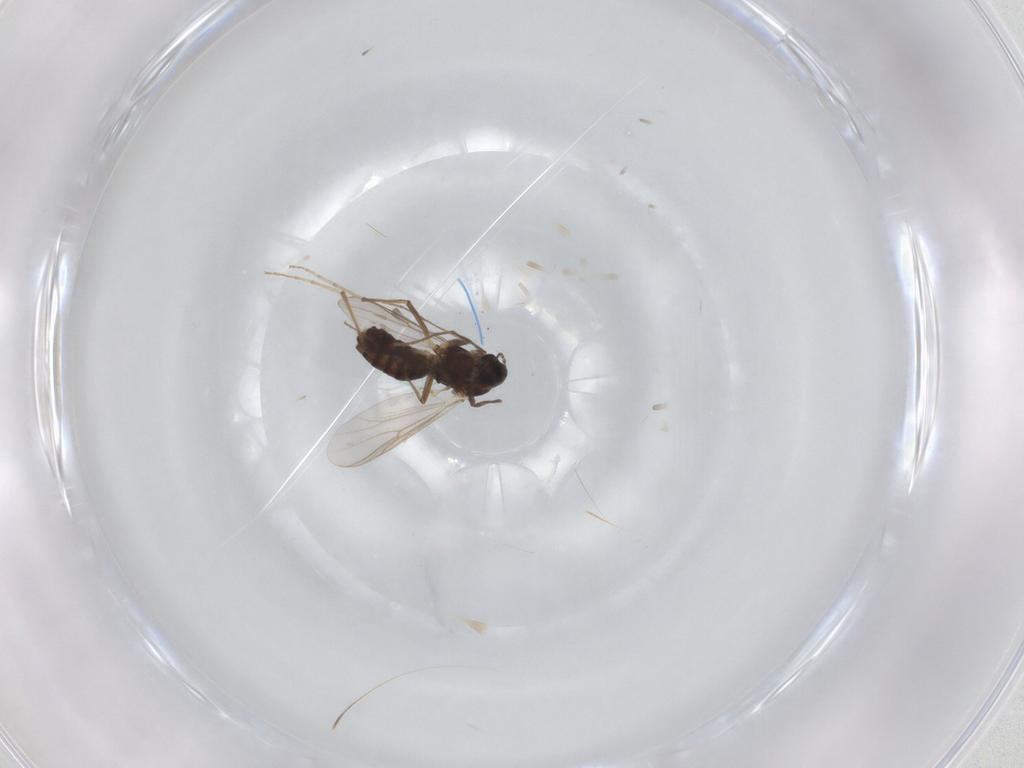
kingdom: Animalia
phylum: Arthropoda
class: Insecta
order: Diptera
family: Chironomidae
